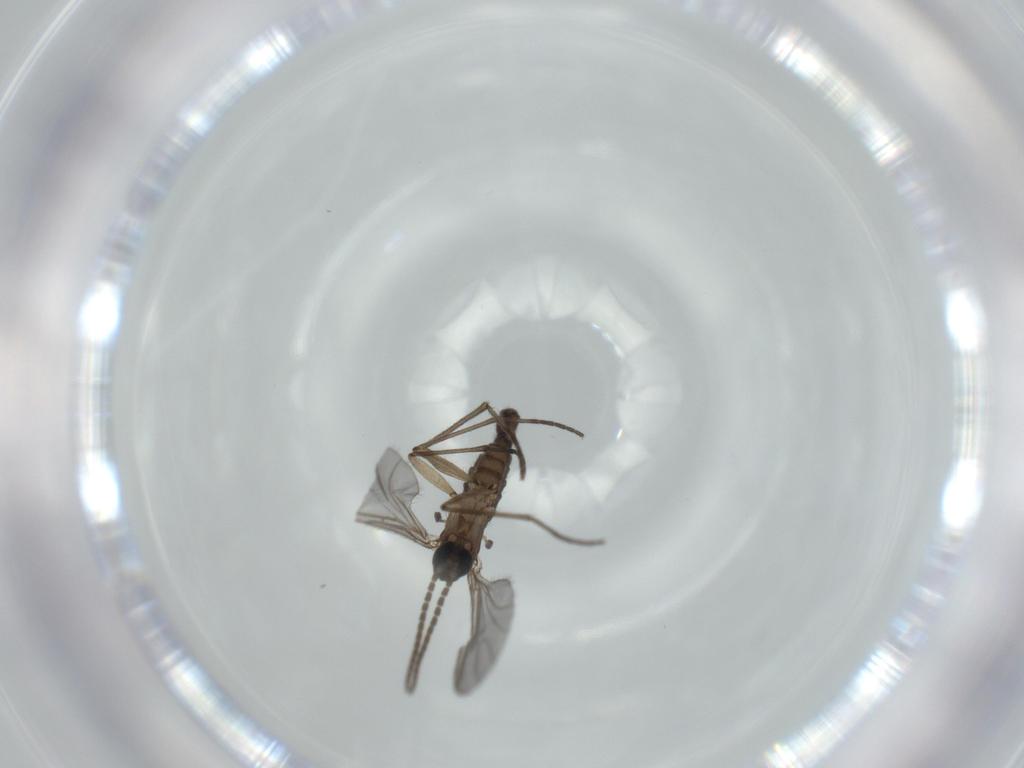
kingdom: Animalia
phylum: Arthropoda
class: Insecta
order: Diptera
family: Sciaridae
